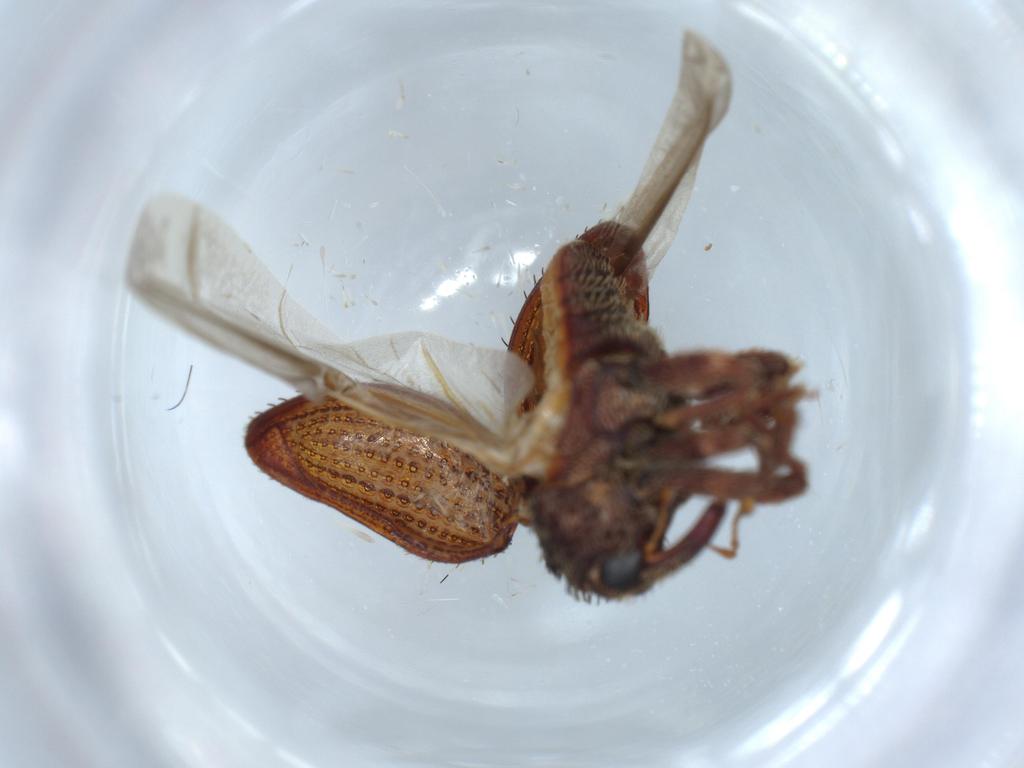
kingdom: Animalia
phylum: Arthropoda
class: Insecta
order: Coleoptera
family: Curculionidae
